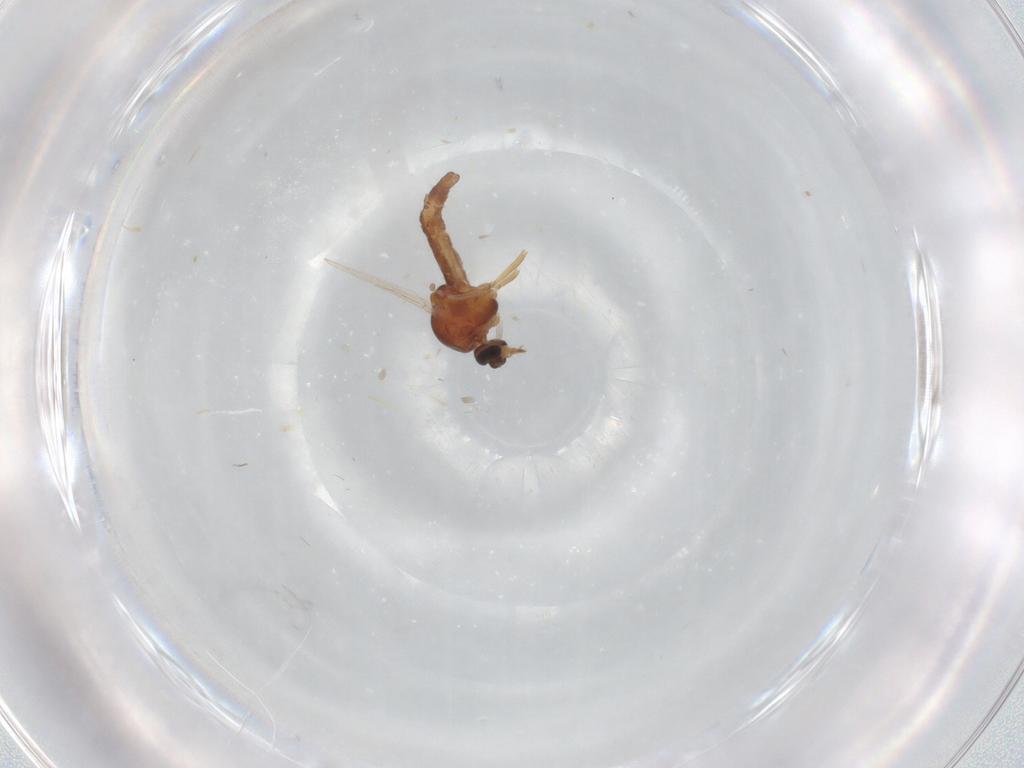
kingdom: Animalia
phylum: Arthropoda
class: Insecta
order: Diptera
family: Ceratopogonidae
